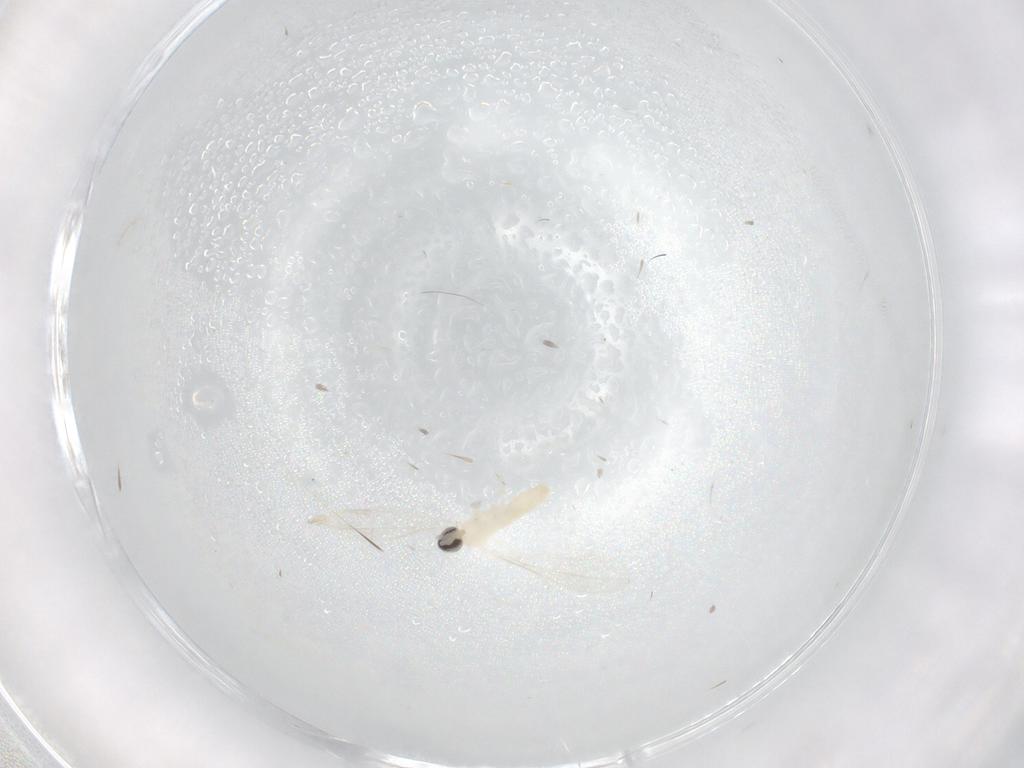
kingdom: Animalia
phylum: Arthropoda
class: Insecta
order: Diptera
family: Cecidomyiidae
